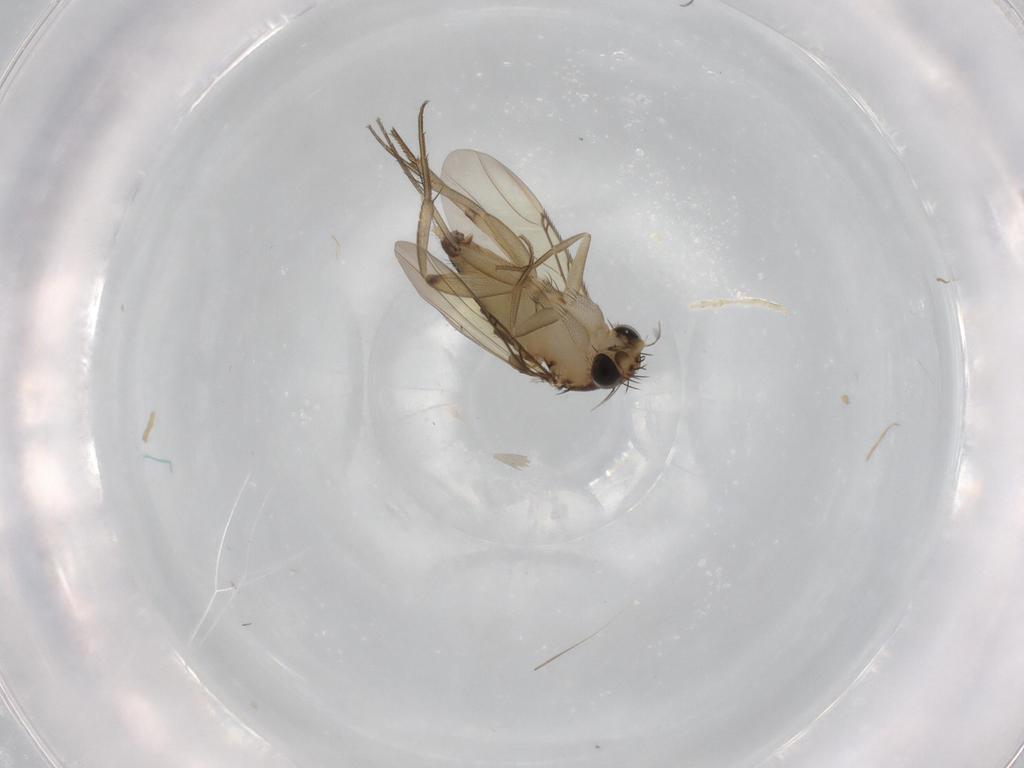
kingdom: Animalia
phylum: Arthropoda
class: Insecta
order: Diptera
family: Phoridae
